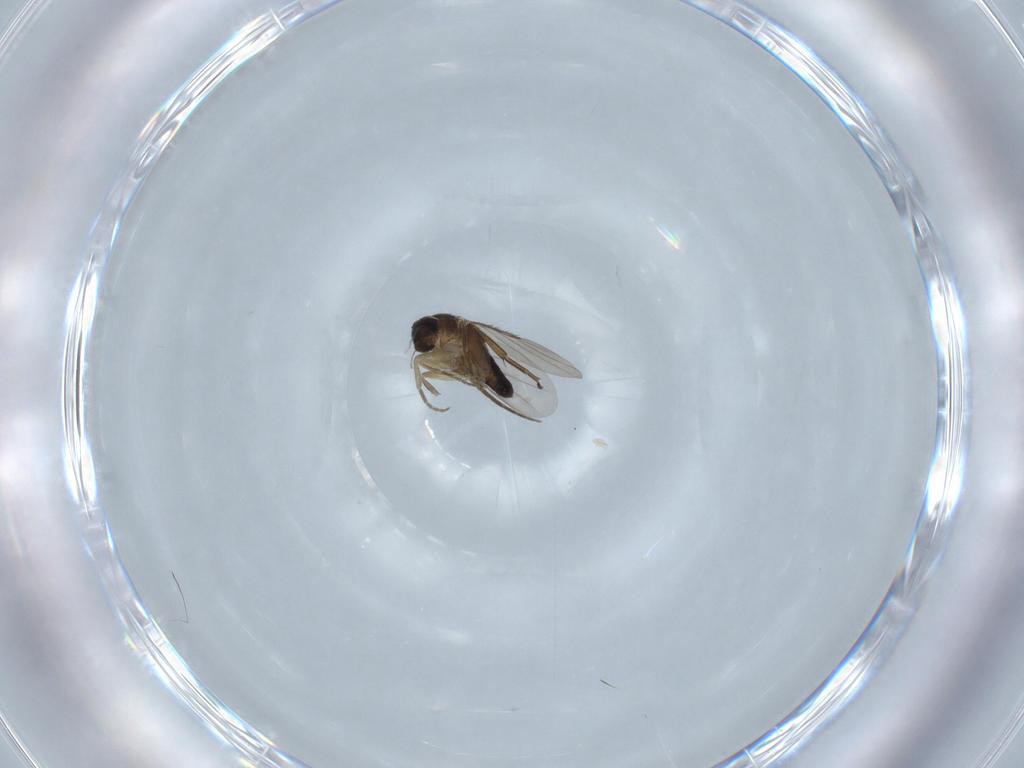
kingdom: Animalia
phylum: Arthropoda
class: Insecta
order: Diptera
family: Phoridae
